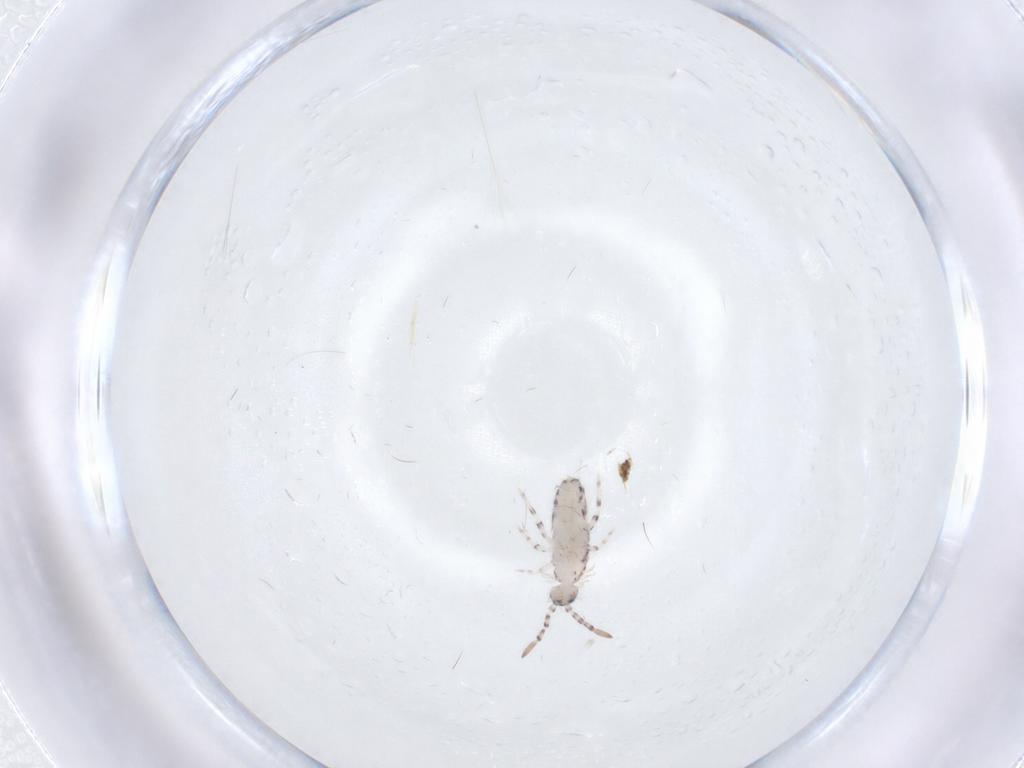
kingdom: Animalia
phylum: Arthropoda
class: Collembola
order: Entomobryomorpha
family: Entomobryidae
